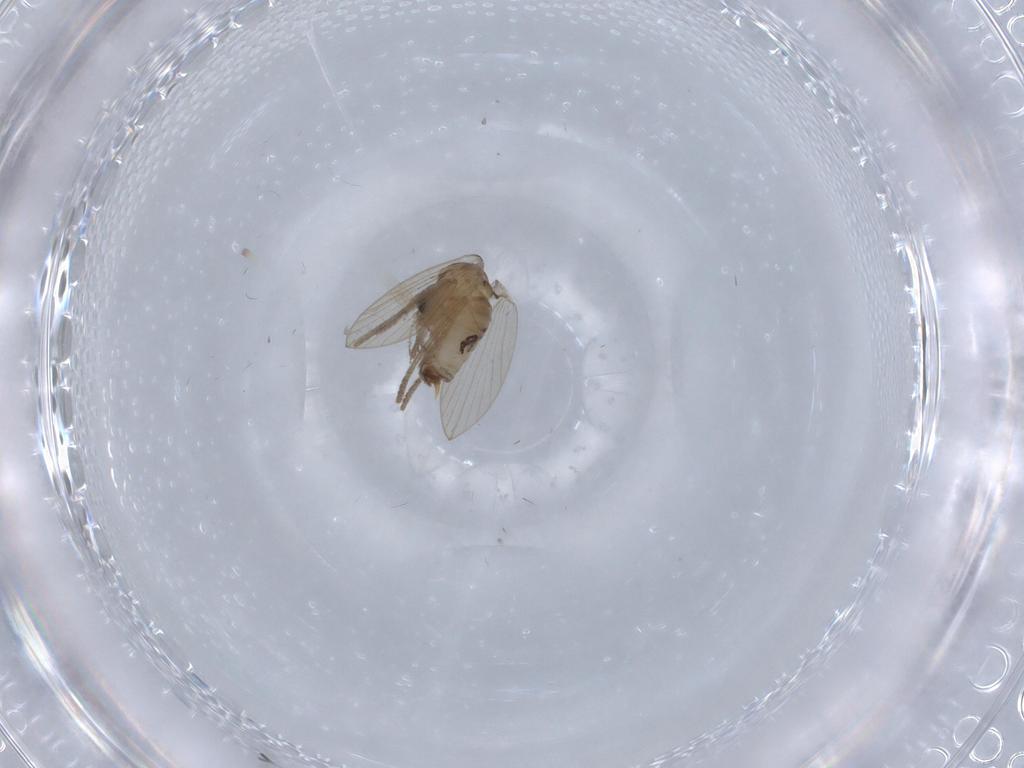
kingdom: Animalia
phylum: Arthropoda
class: Insecta
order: Diptera
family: Psychodidae
